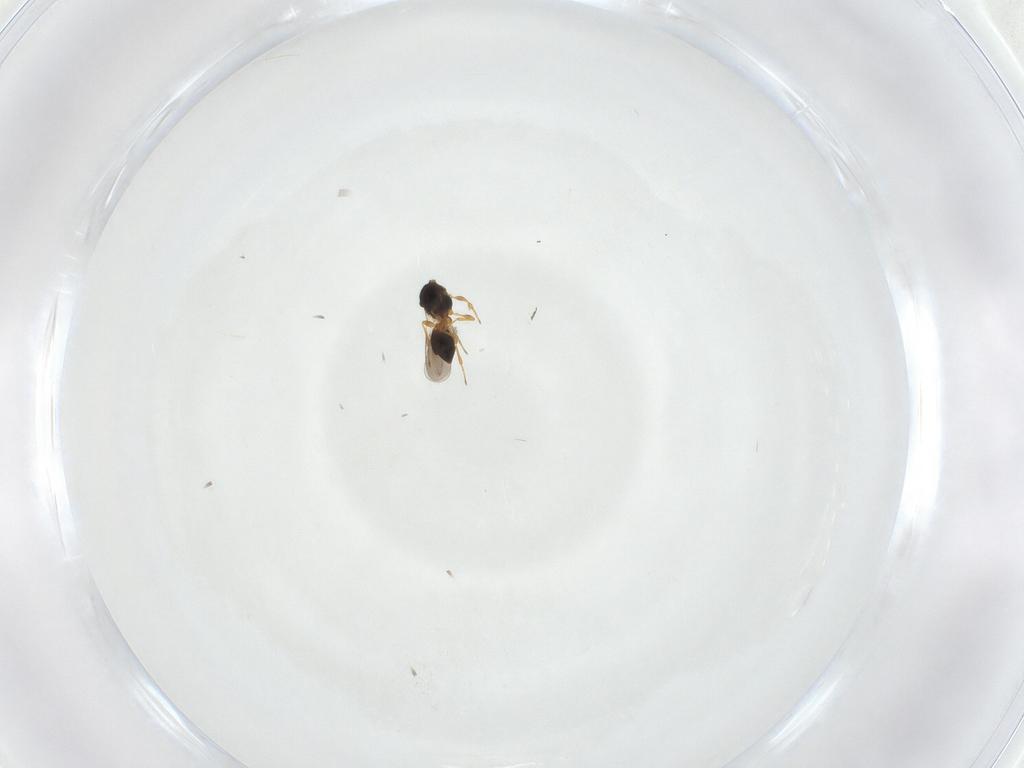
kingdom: Animalia
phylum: Arthropoda
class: Insecta
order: Hymenoptera
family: Platygastridae
